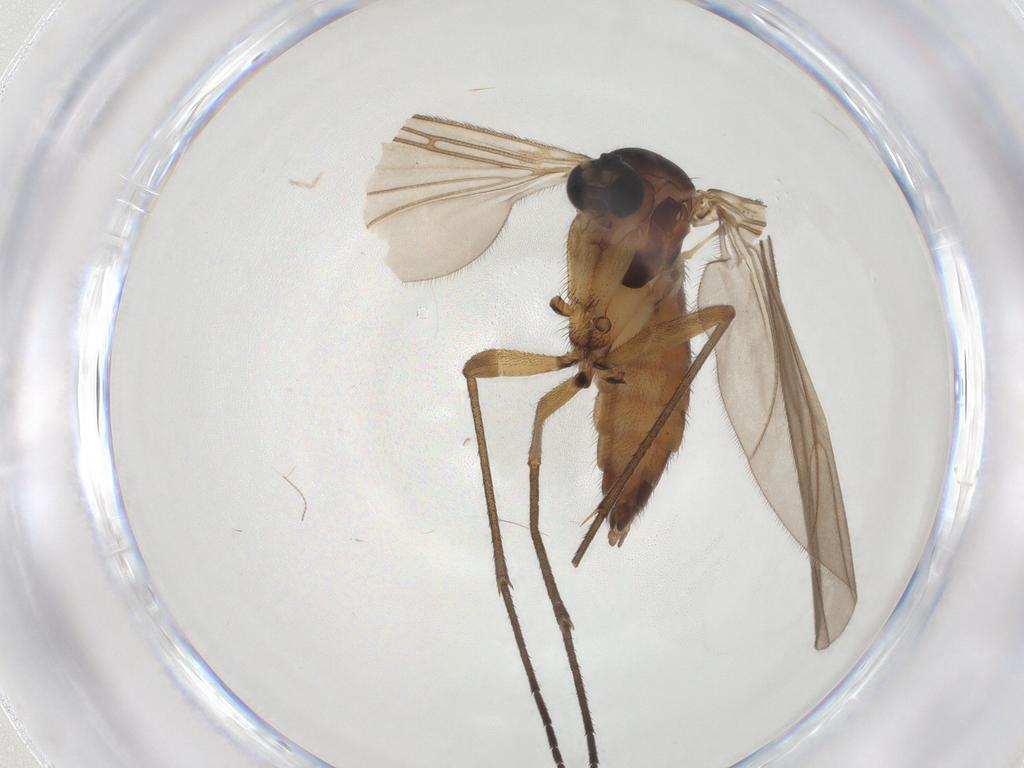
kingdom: Animalia
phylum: Arthropoda
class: Insecta
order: Diptera
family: Sciaridae
